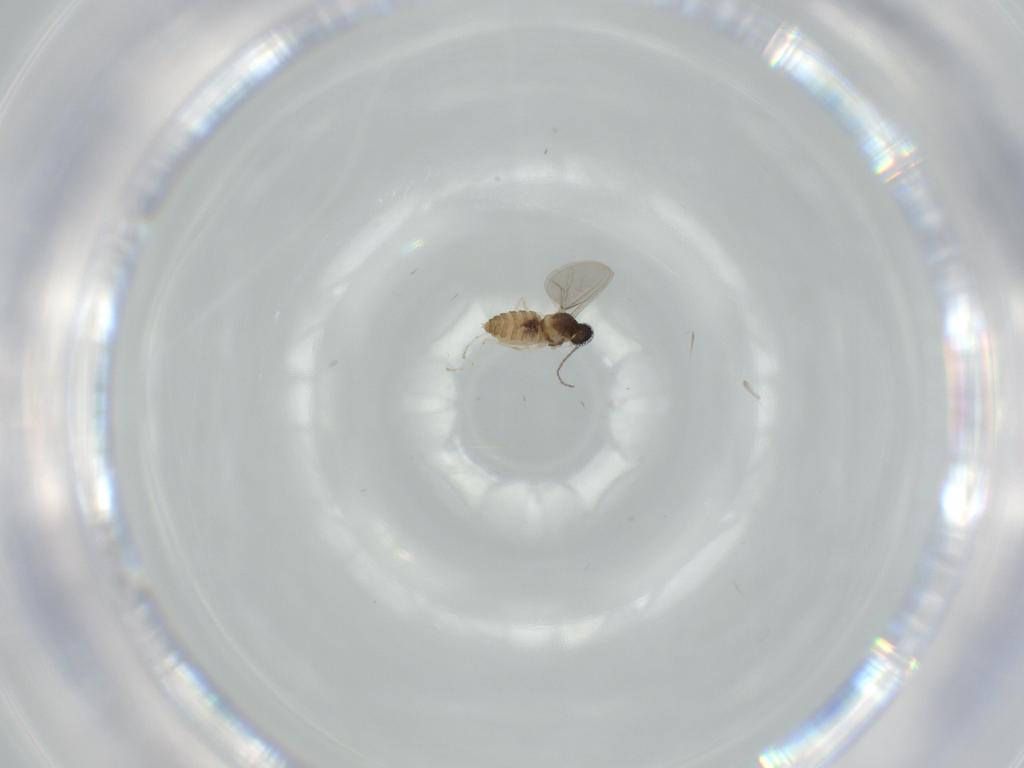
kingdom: Animalia
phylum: Arthropoda
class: Insecta
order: Diptera
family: Cecidomyiidae
